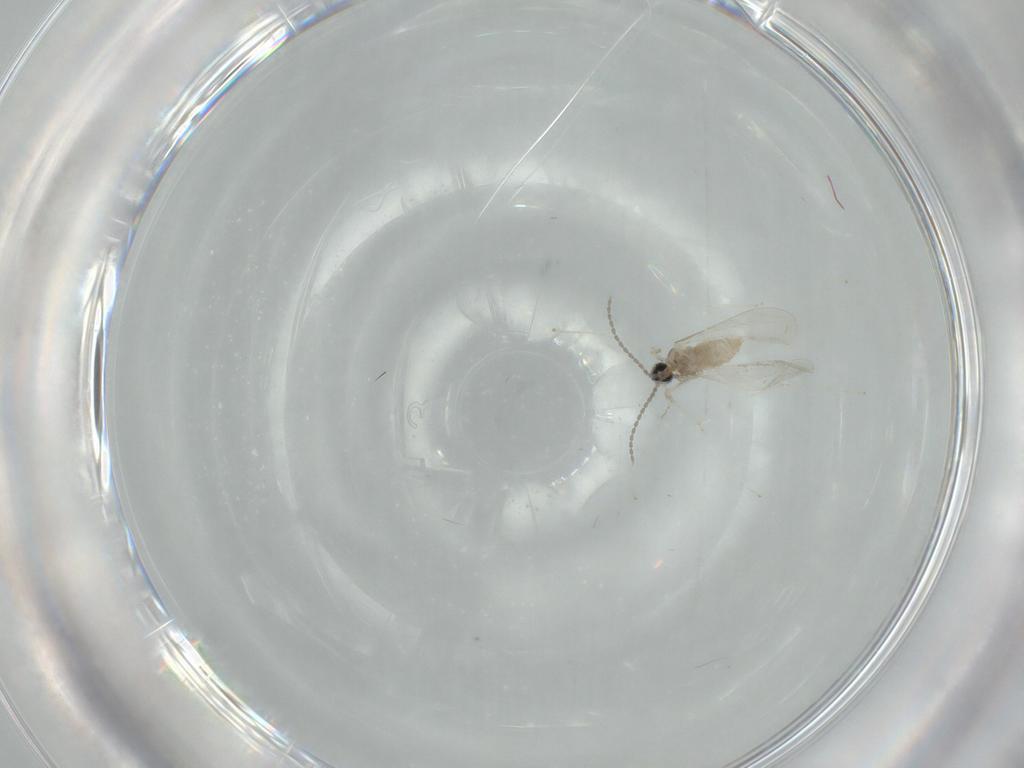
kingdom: Animalia
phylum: Arthropoda
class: Insecta
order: Diptera
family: Cecidomyiidae
